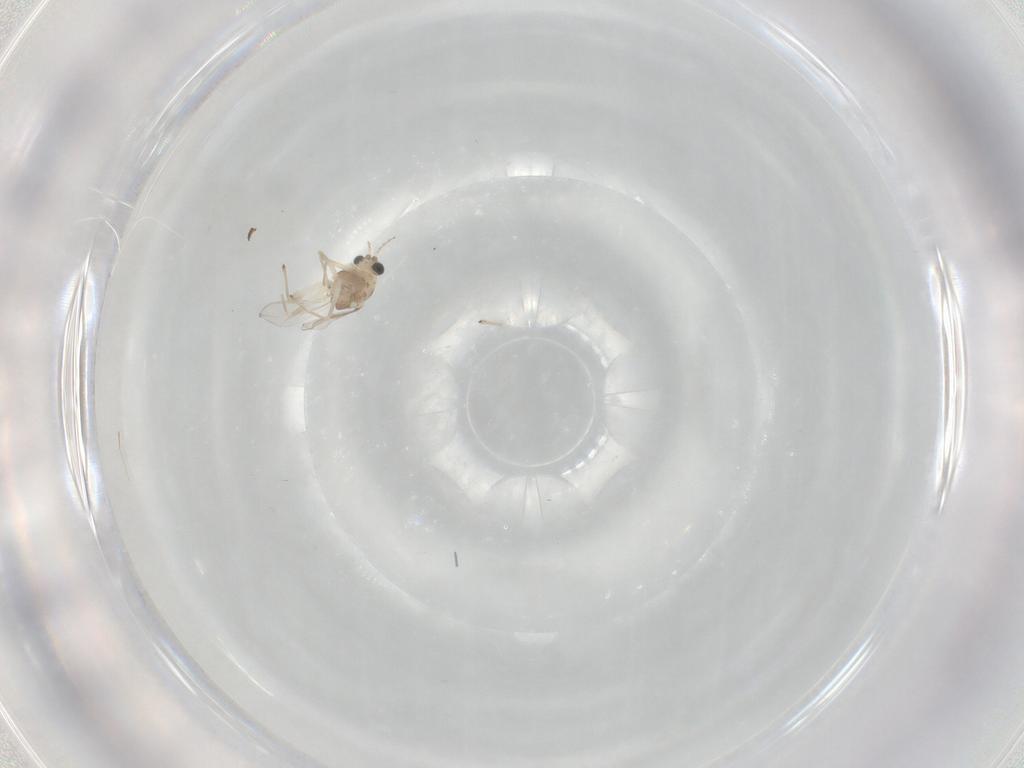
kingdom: Animalia
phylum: Arthropoda
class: Insecta
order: Diptera
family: Chironomidae
